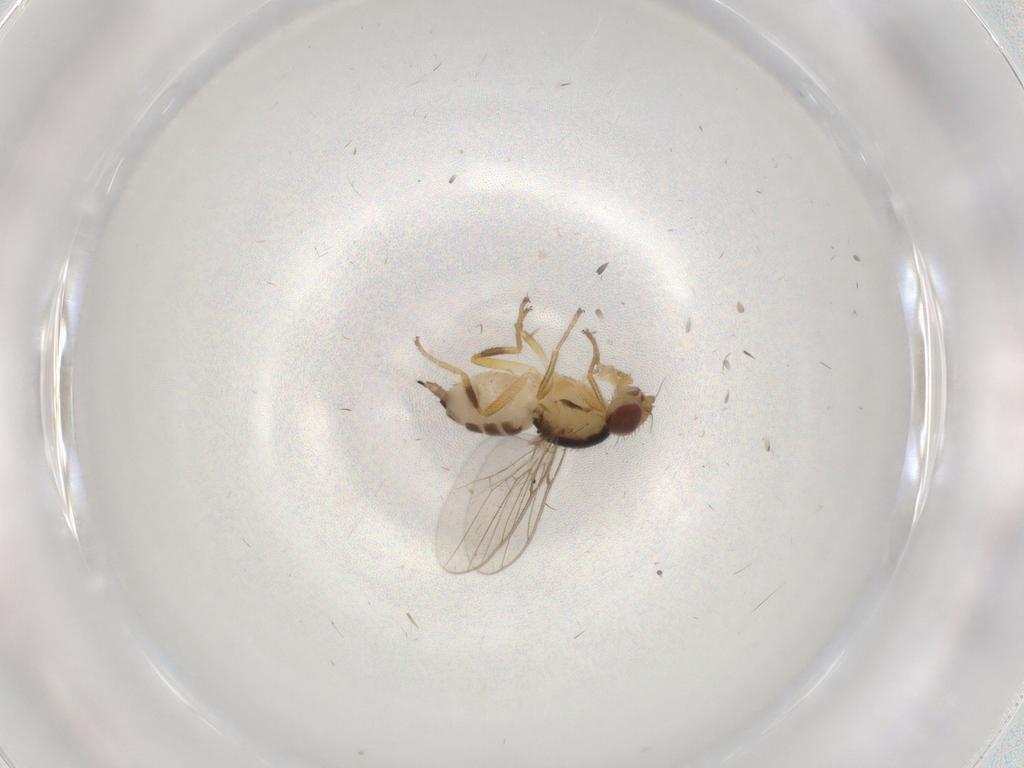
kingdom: Animalia
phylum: Arthropoda
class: Insecta
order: Diptera
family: Chloropidae
